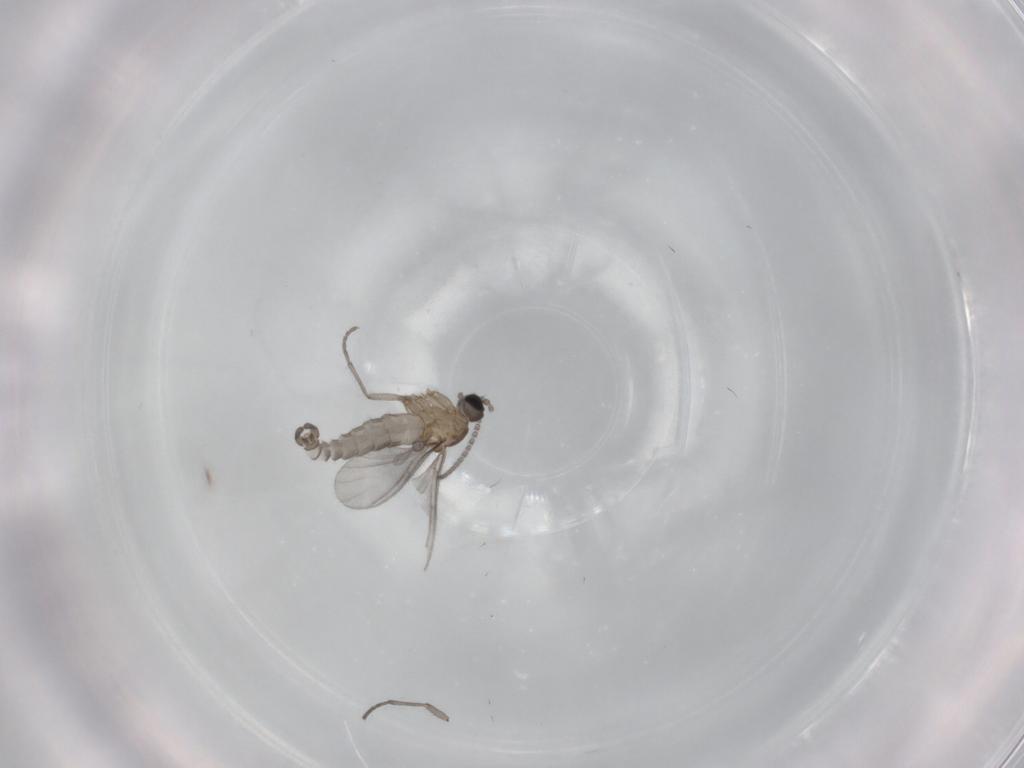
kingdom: Animalia
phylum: Arthropoda
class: Insecta
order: Diptera
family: Sciaridae
